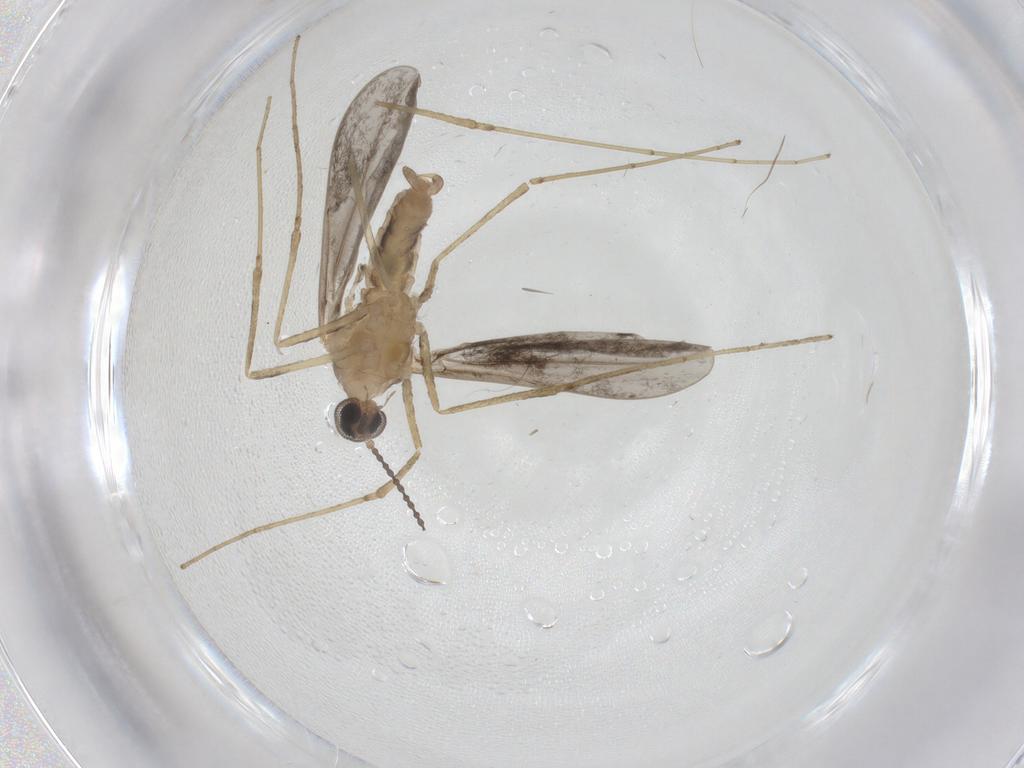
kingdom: Animalia
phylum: Arthropoda
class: Insecta
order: Diptera
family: Cecidomyiidae
